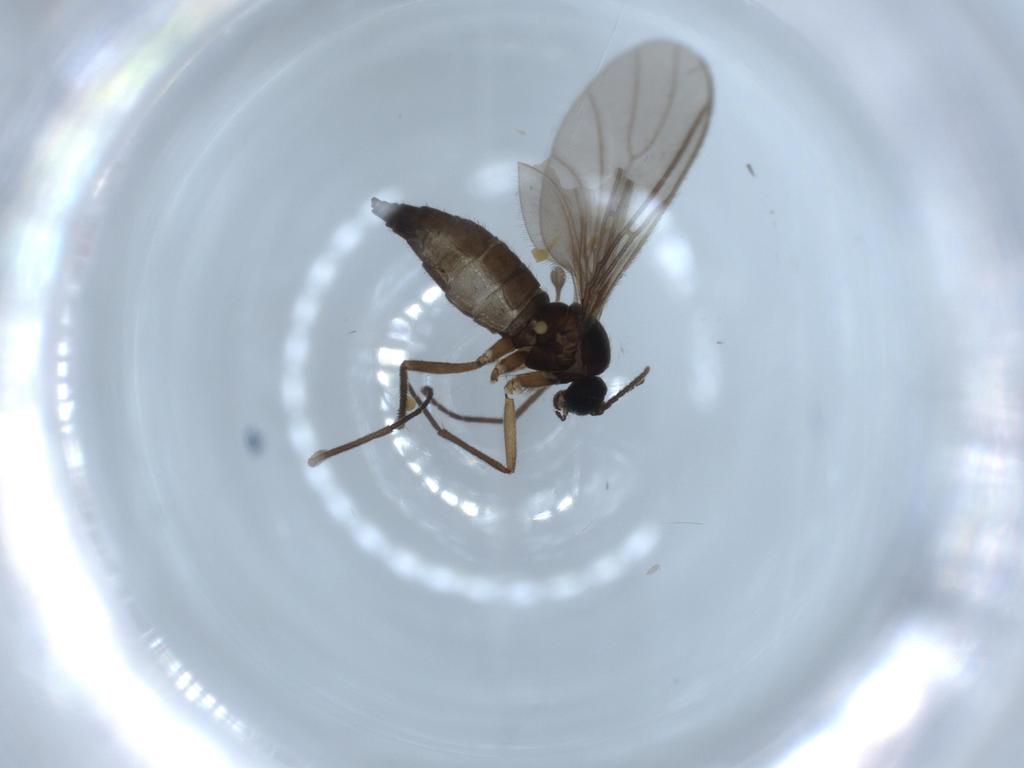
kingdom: Animalia
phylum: Arthropoda
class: Insecta
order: Diptera
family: Sciaridae
